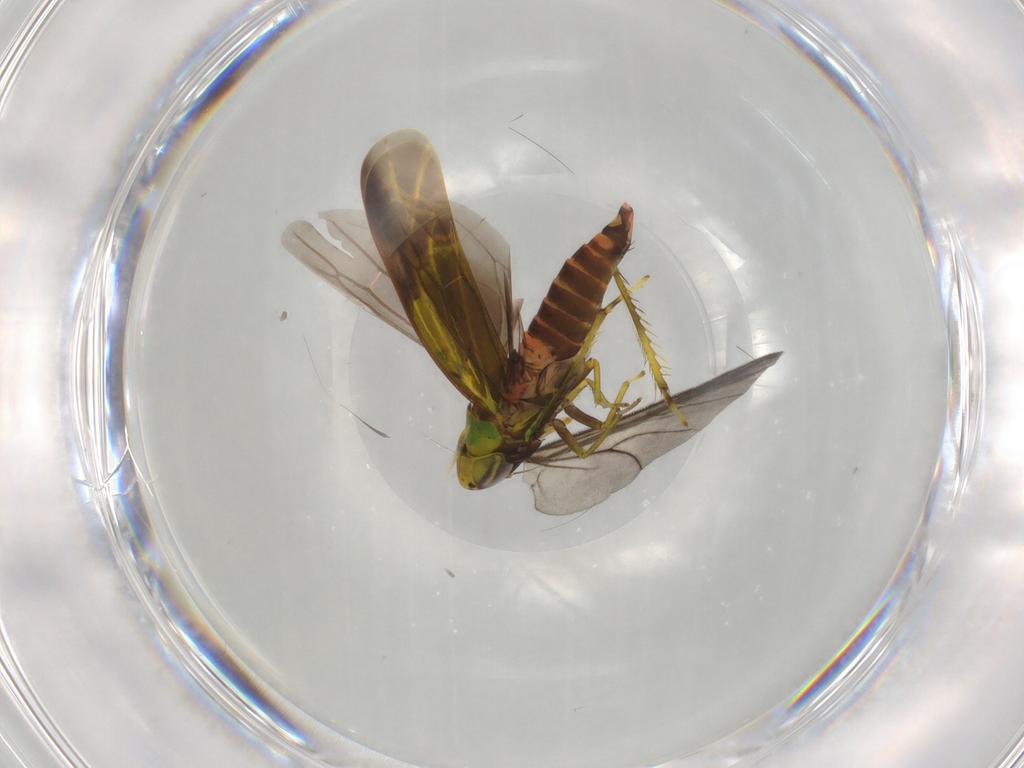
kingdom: Animalia
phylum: Arthropoda
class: Insecta
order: Hemiptera
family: Cicadellidae
